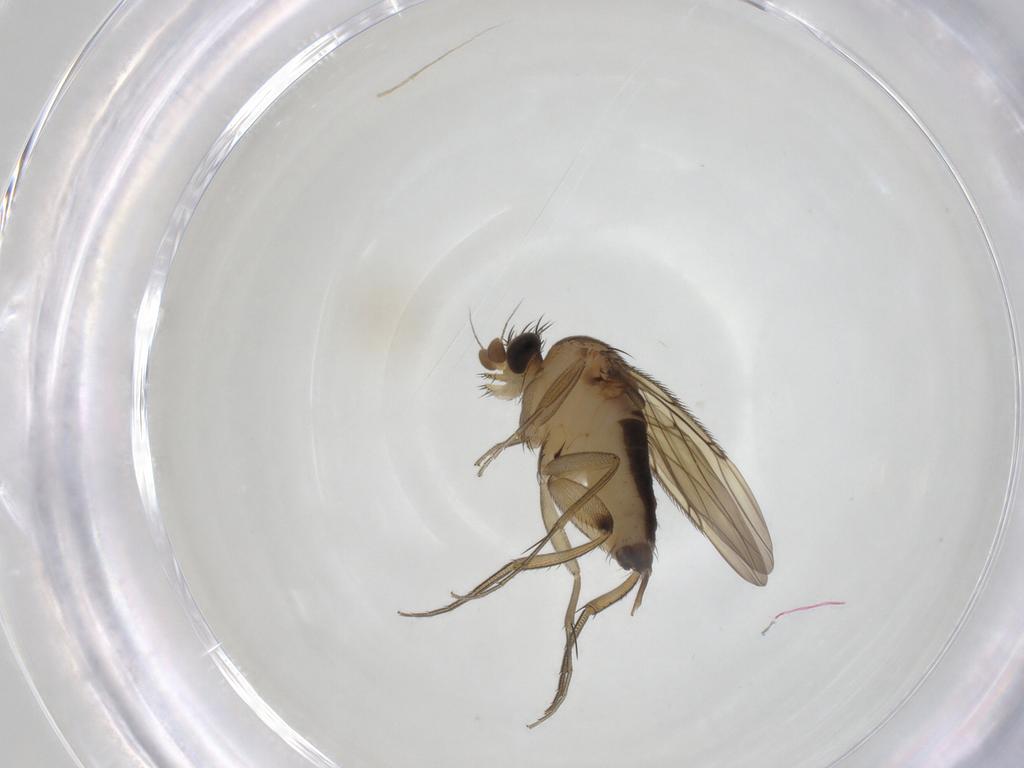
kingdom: Animalia
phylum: Arthropoda
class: Insecta
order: Diptera
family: Phoridae
